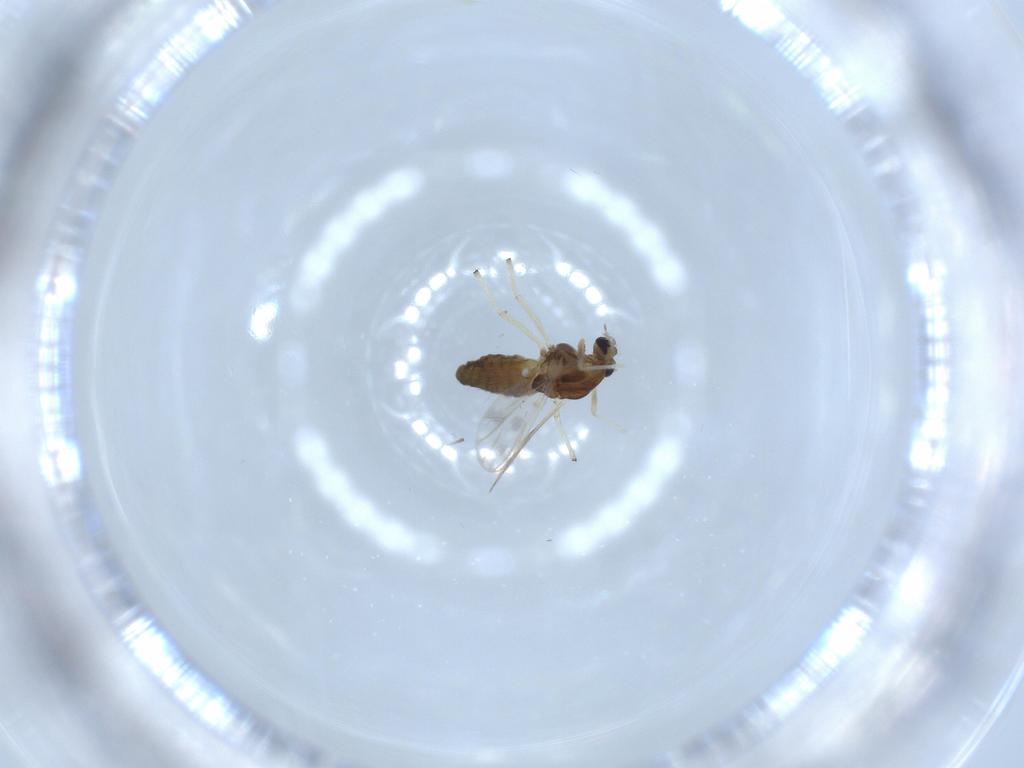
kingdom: Animalia
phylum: Arthropoda
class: Insecta
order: Diptera
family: Chironomidae
